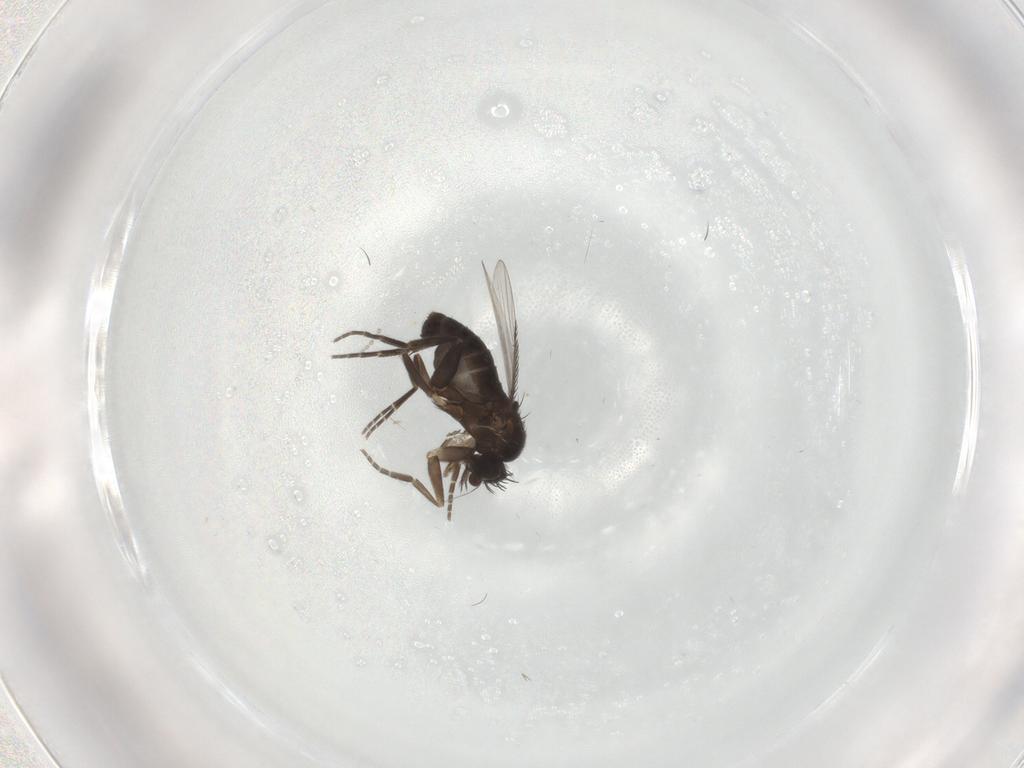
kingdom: Animalia
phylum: Arthropoda
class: Insecta
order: Diptera
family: Phoridae
